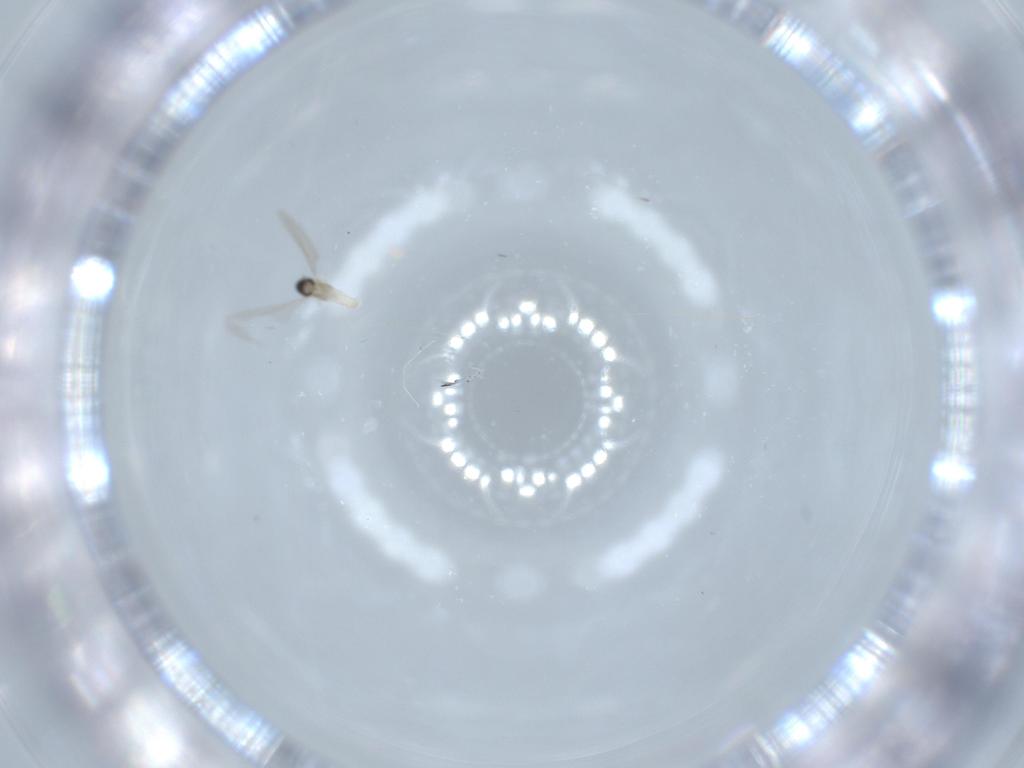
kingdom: Animalia
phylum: Arthropoda
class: Insecta
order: Diptera
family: Cecidomyiidae
